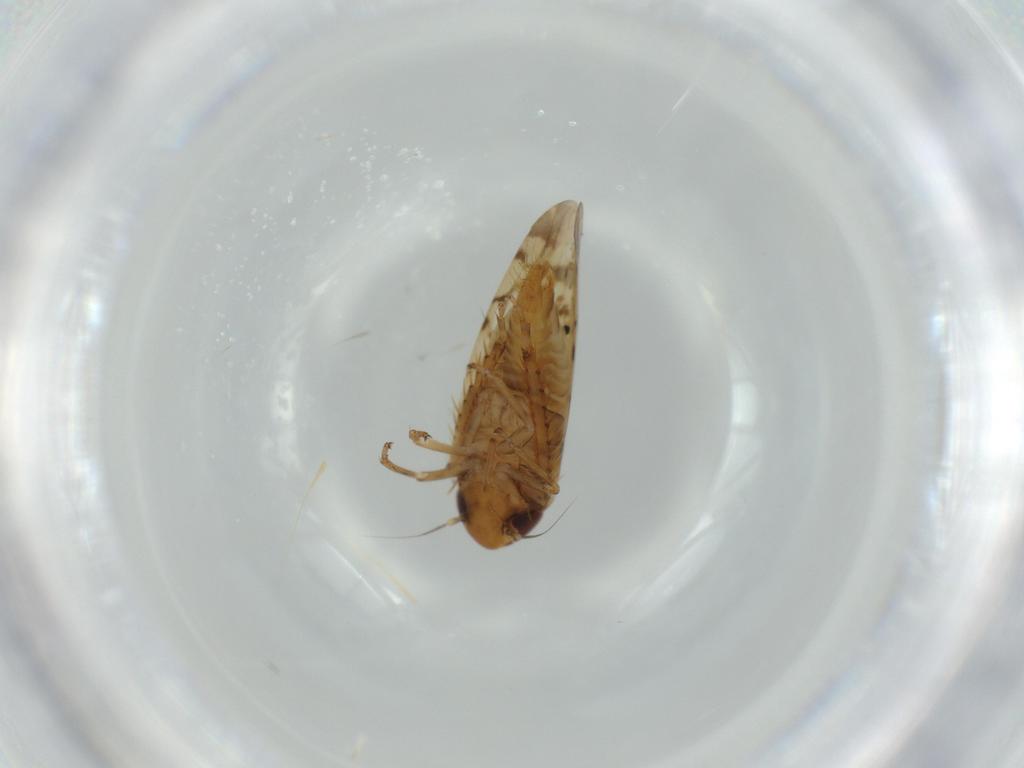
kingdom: Animalia
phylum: Arthropoda
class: Insecta
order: Hemiptera
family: Cicadellidae
